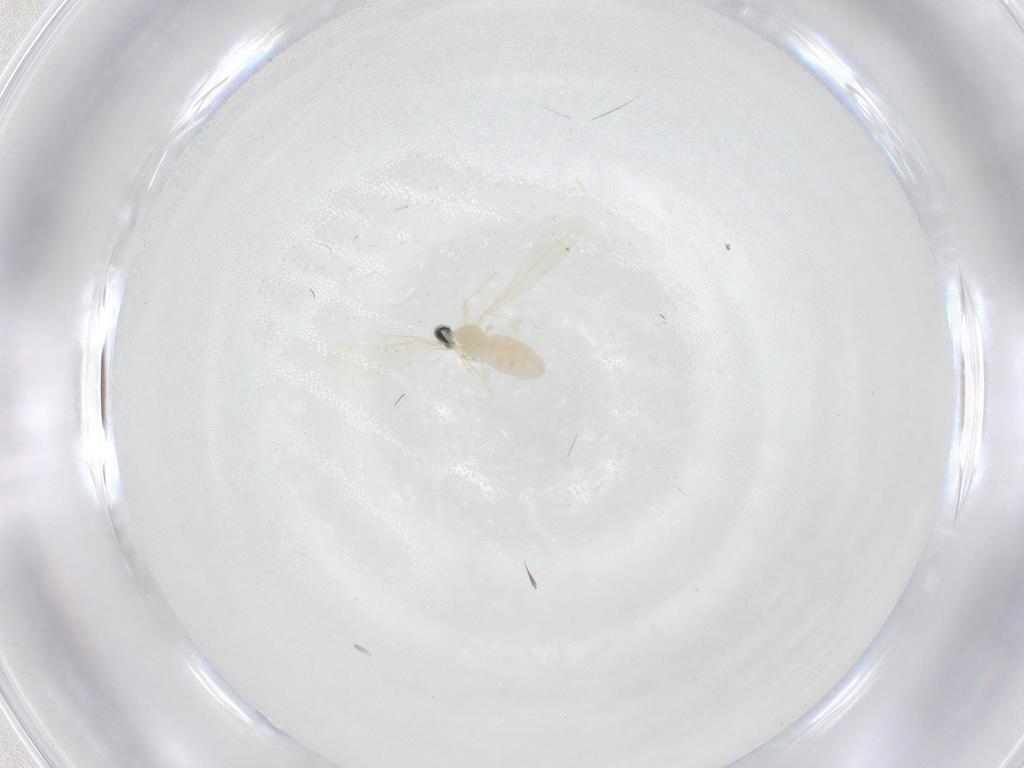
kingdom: Animalia
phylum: Arthropoda
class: Insecta
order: Diptera
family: Cecidomyiidae
